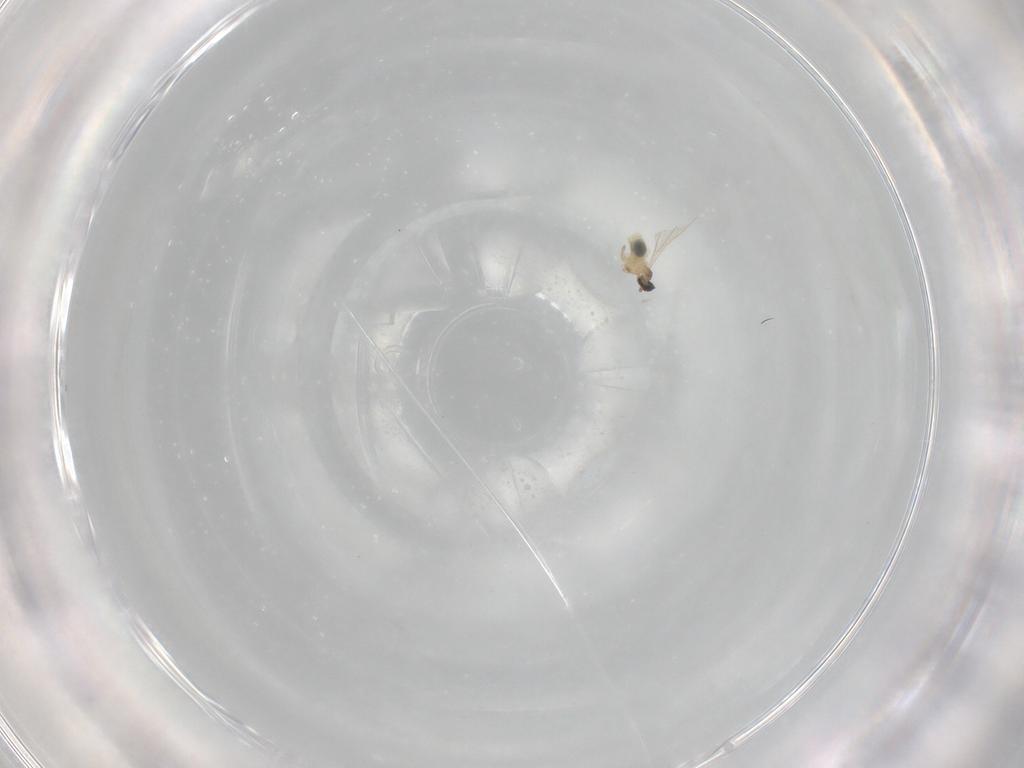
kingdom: Animalia
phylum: Arthropoda
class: Insecta
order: Diptera
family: Cecidomyiidae
